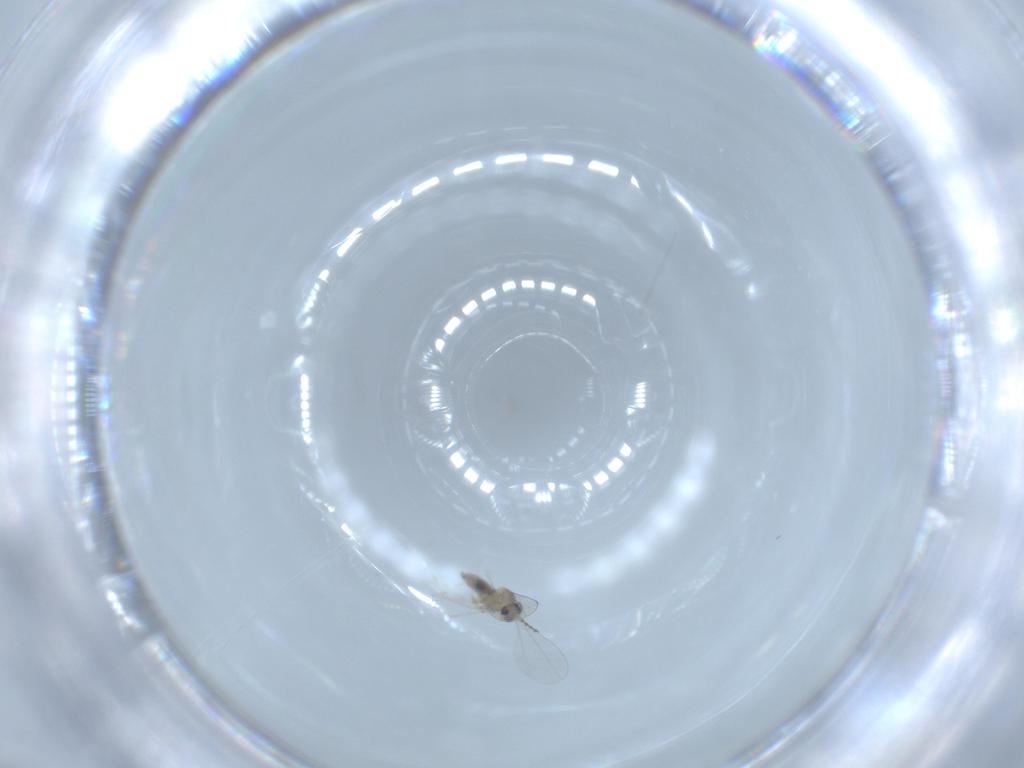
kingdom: Animalia
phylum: Arthropoda
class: Insecta
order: Diptera
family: Cecidomyiidae
